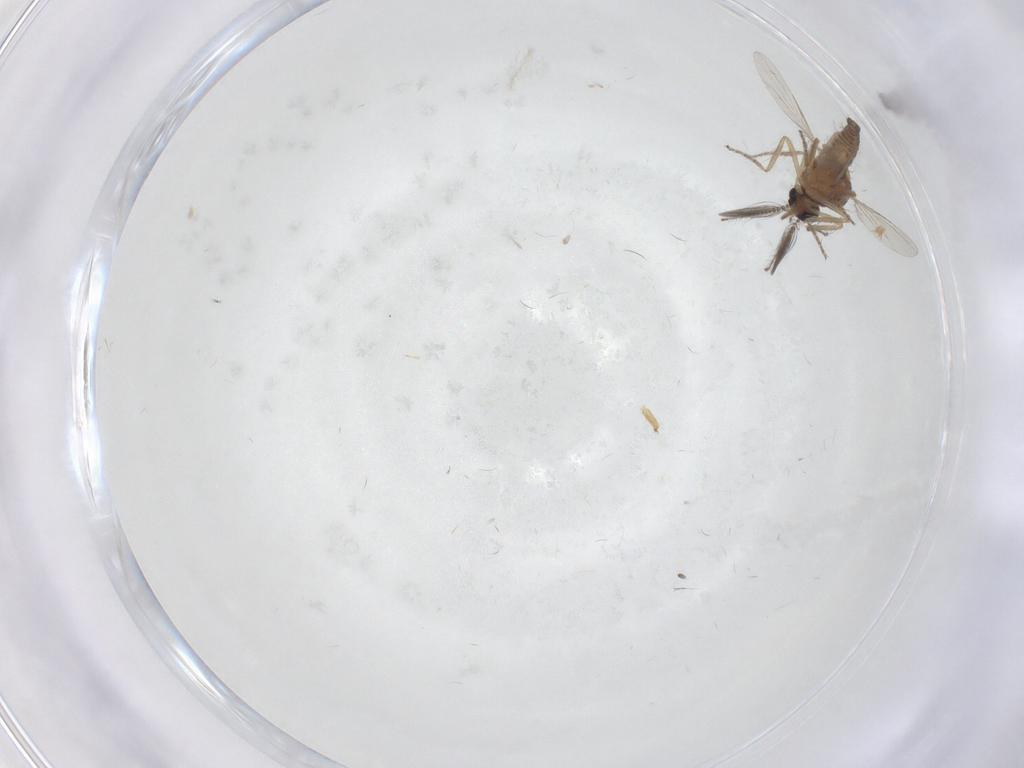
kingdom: Animalia
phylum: Arthropoda
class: Insecta
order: Diptera
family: Ceratopogonidae
